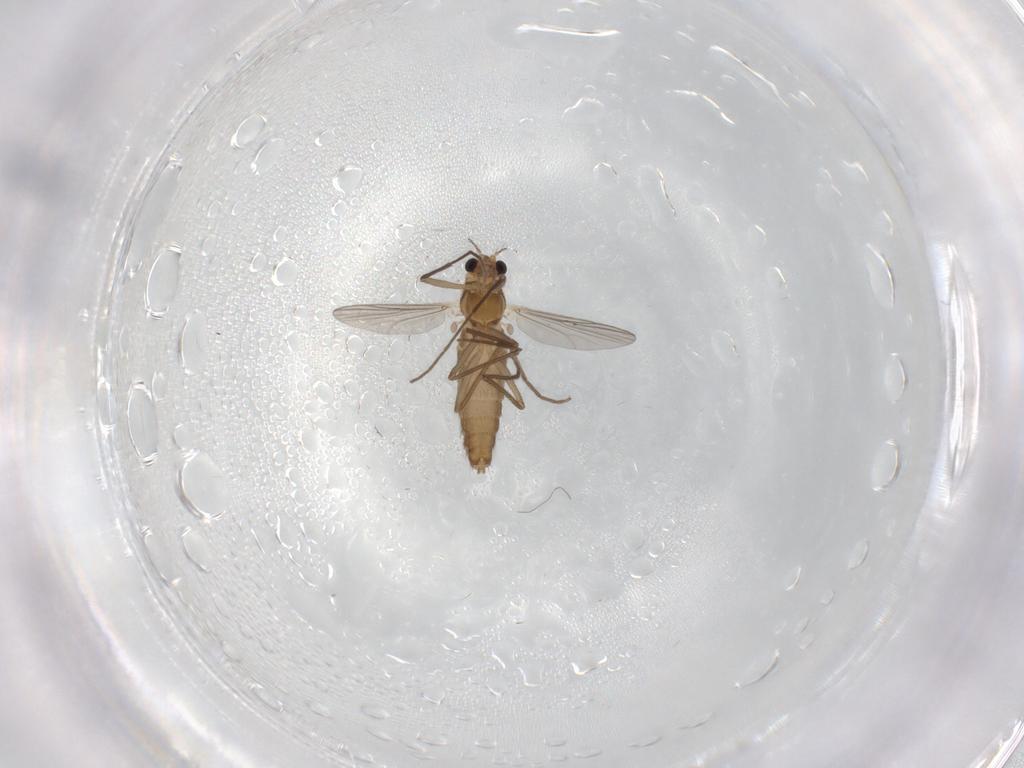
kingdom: Animalia
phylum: Arthropoda
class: Insecta
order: Diptera
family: Chironomidae
